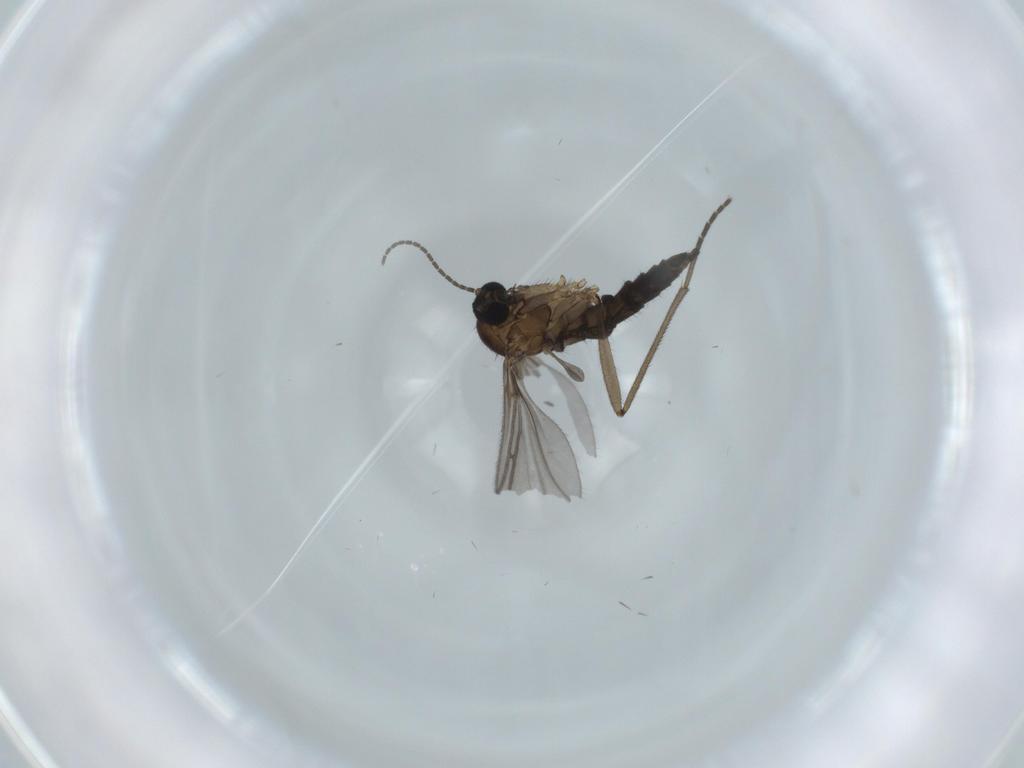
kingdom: Animalia
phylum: Arthropoda
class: Insecta
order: Diptera
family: Sciaridae
